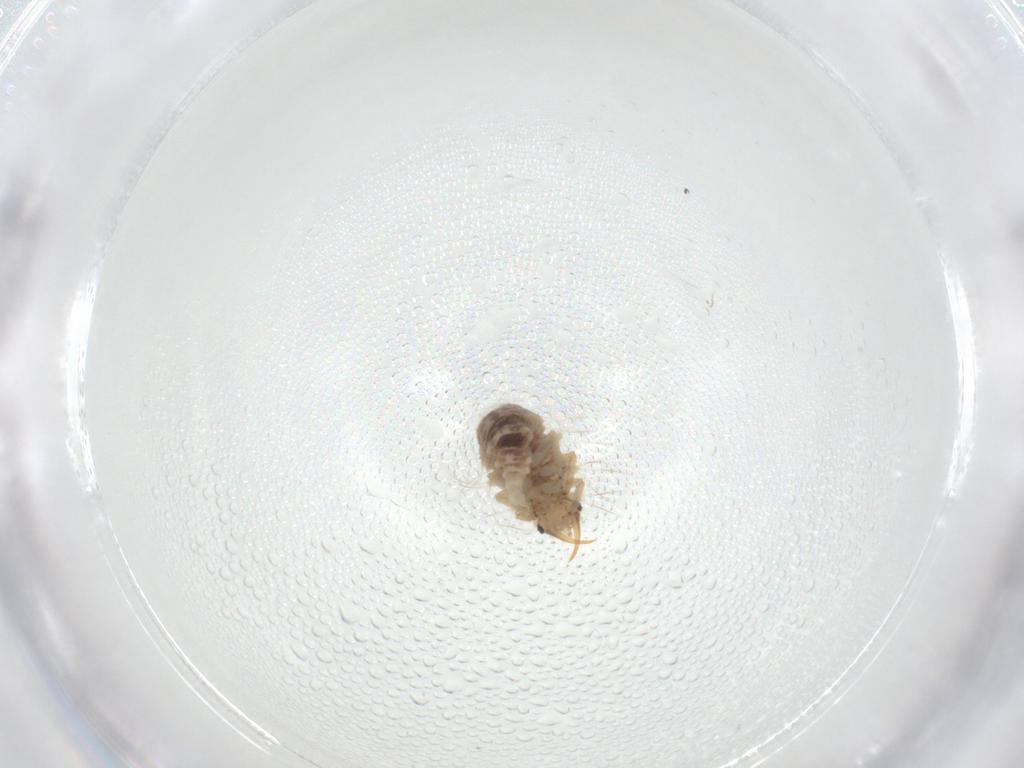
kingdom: Animalia
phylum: Arthropoda
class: Insecta
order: Neuroptera
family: Chrysopidae
